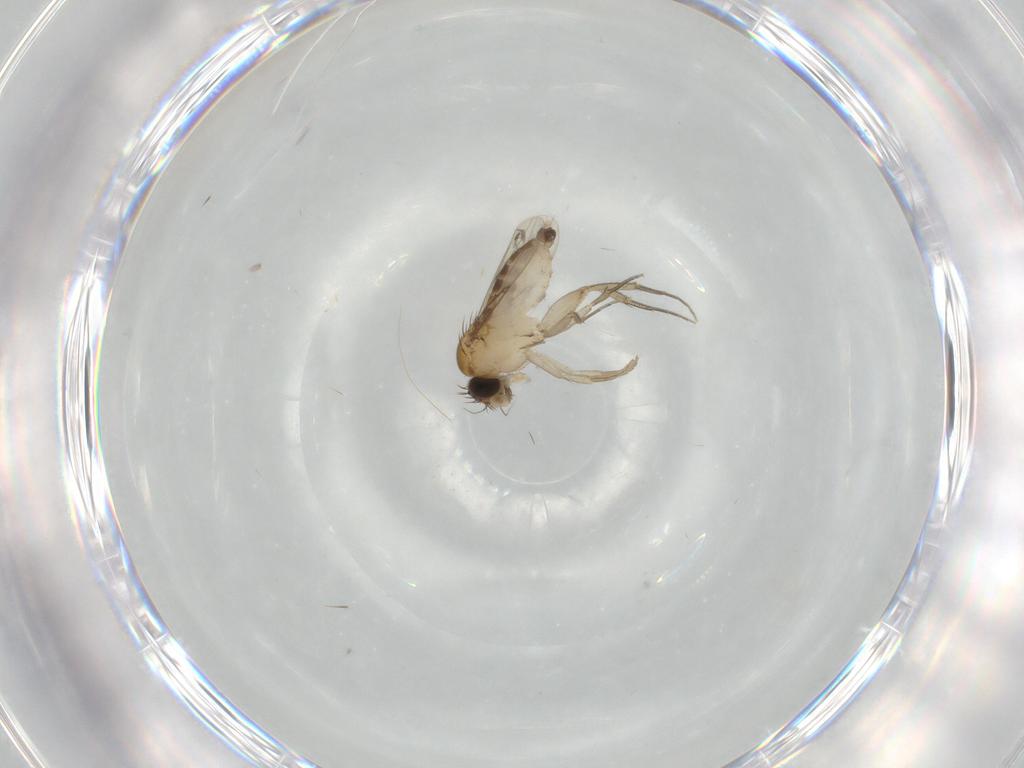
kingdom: Animalia
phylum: Arthropoda
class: Insecta
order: Diptera
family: Phoridae
